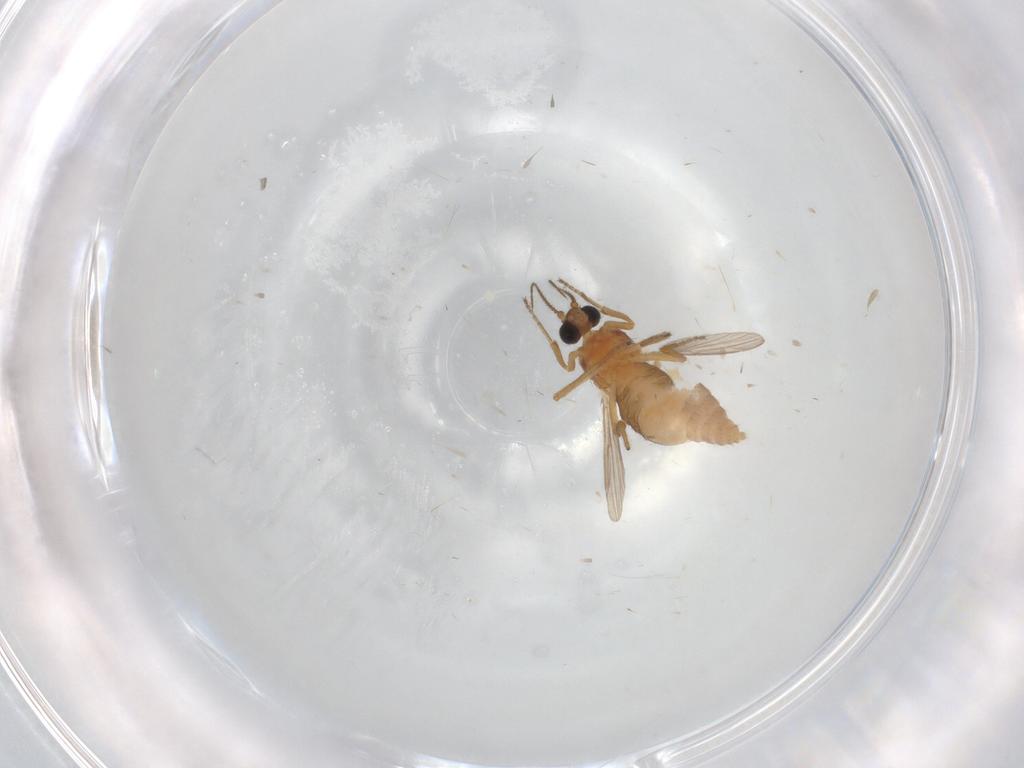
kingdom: Animalia
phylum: Arthropoda
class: Insecta
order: Diptera
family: Ceratopogonidae
